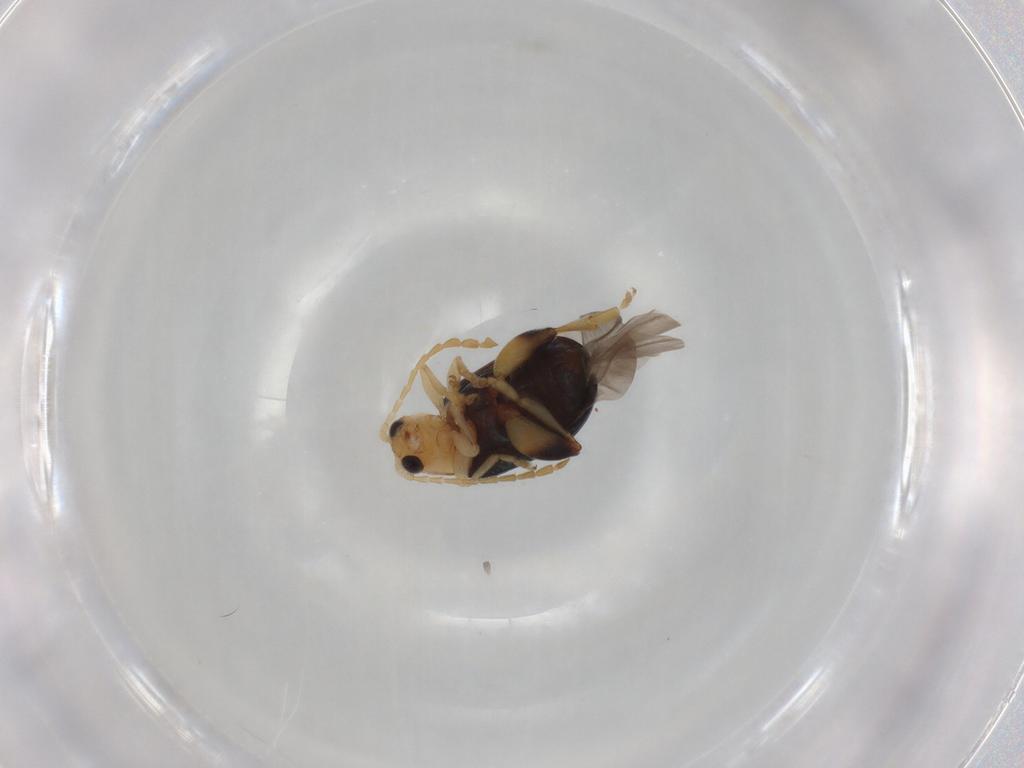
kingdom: Animalia
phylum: Arthropoda
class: Insecta
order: Coleoptera
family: Chrysomelidae
